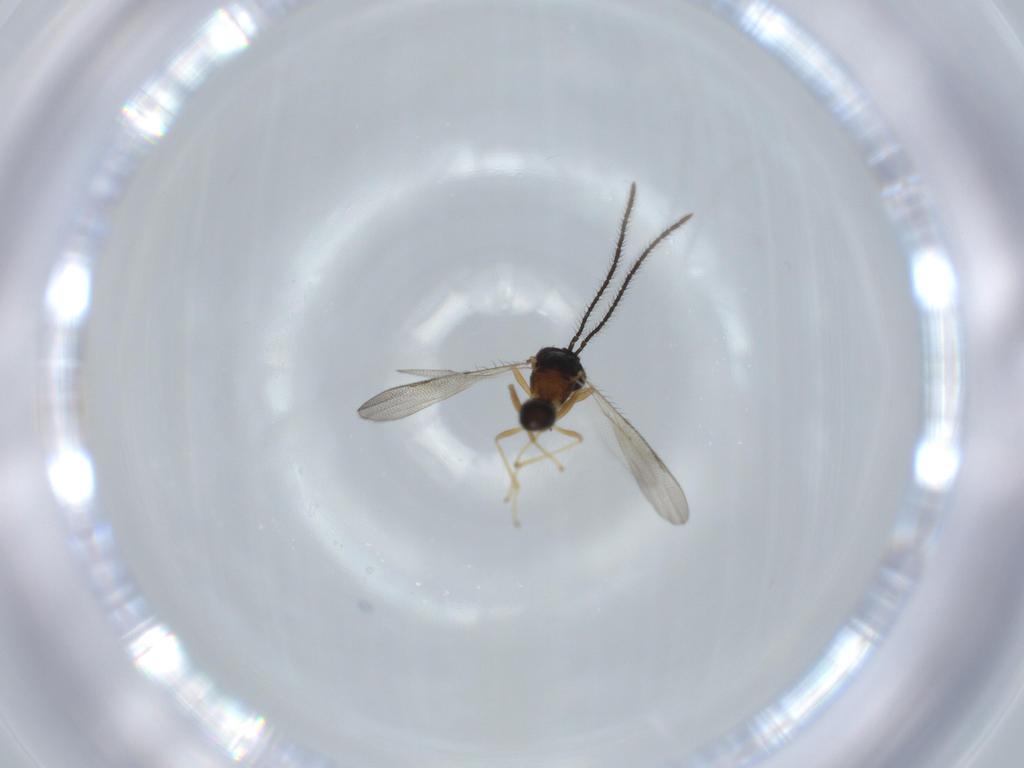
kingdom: Animalia
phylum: Arthropoda
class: Insecta
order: Hymenoptera
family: Diparidae
